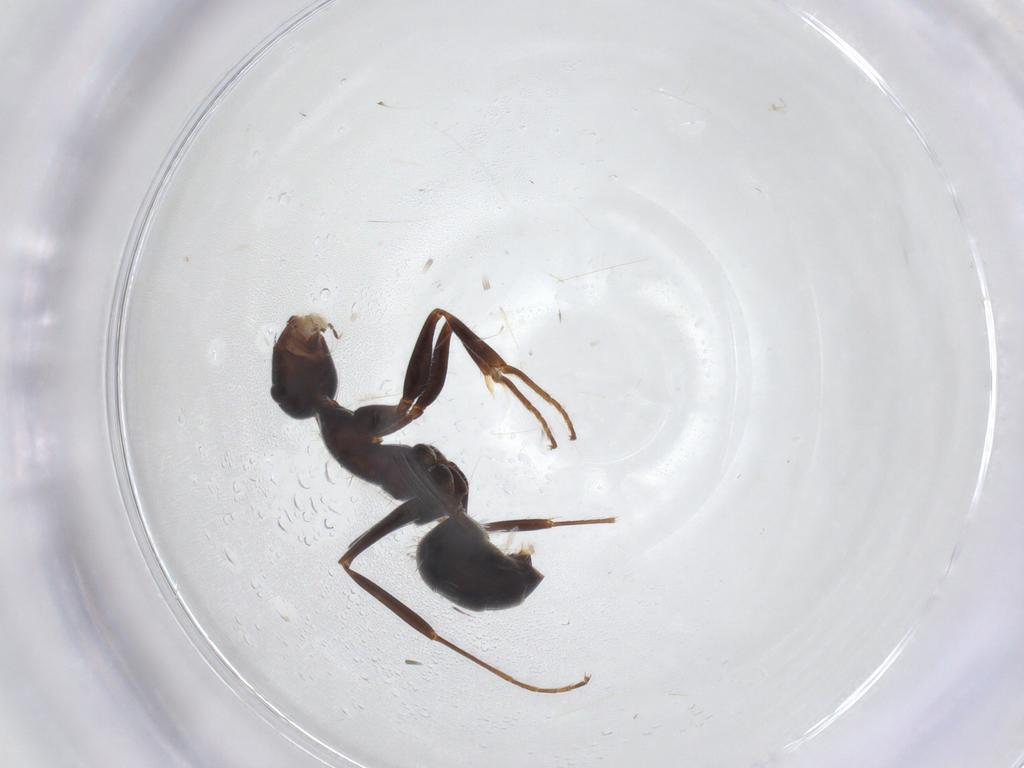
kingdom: Animalia
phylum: Arthropoda
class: Insecta
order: Hymenoptera
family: Formicidae
